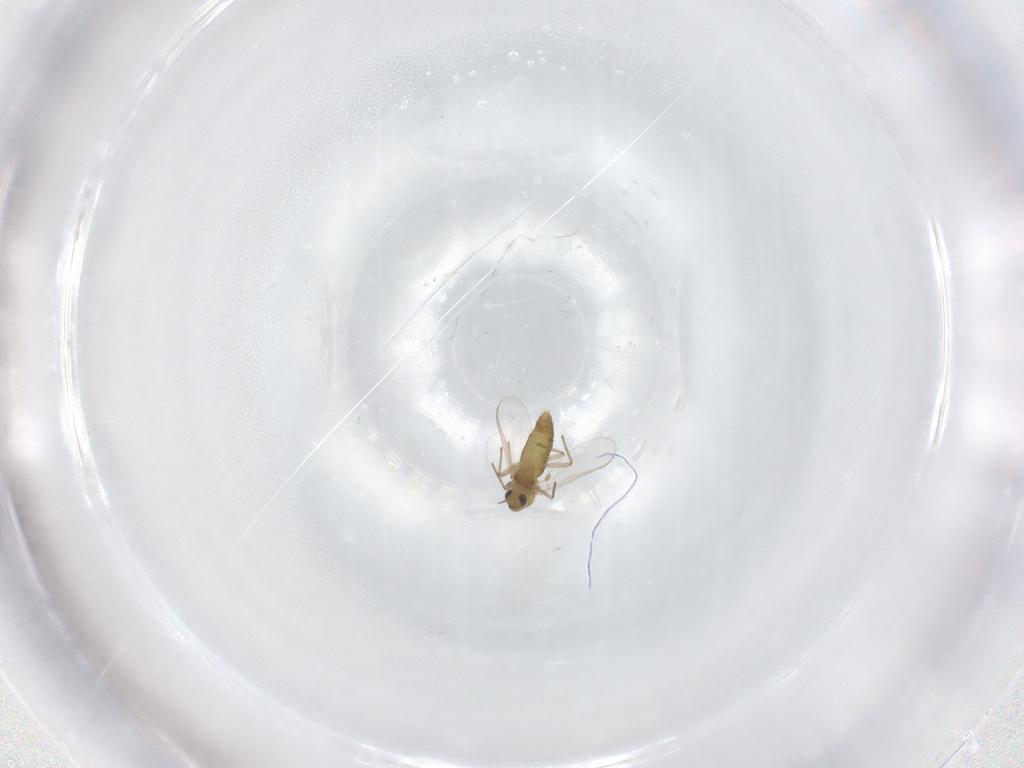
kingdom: Animalia
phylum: Arthropoda
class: Insecta
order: Diptera
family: Chironomidae
